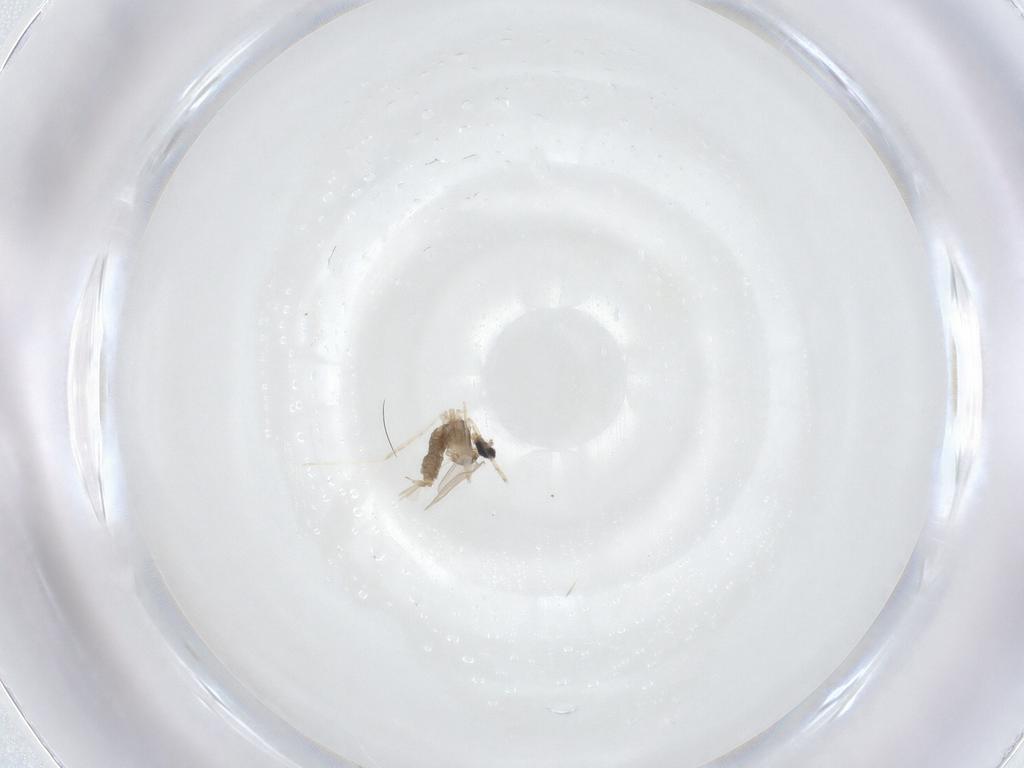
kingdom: Animalia
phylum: Arthropoda
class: Insecta
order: Diptera
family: Cecidomyiidae
